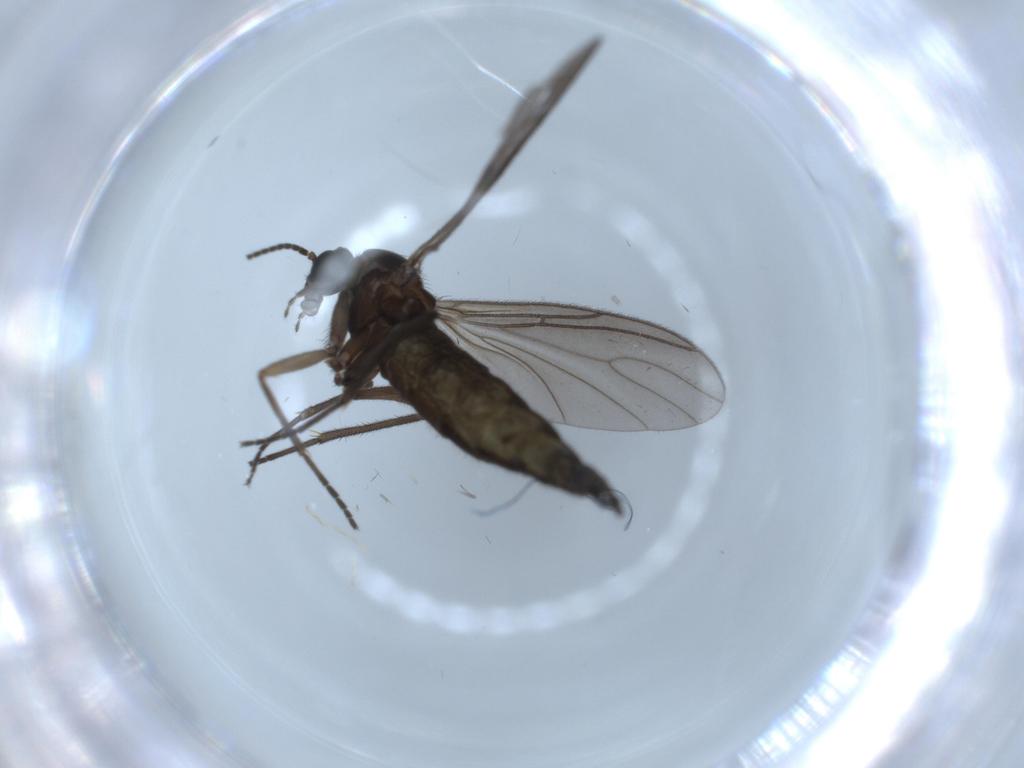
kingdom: Animalia
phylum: Arthropoda
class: Insecta
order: Diptera
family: Sciaridae
